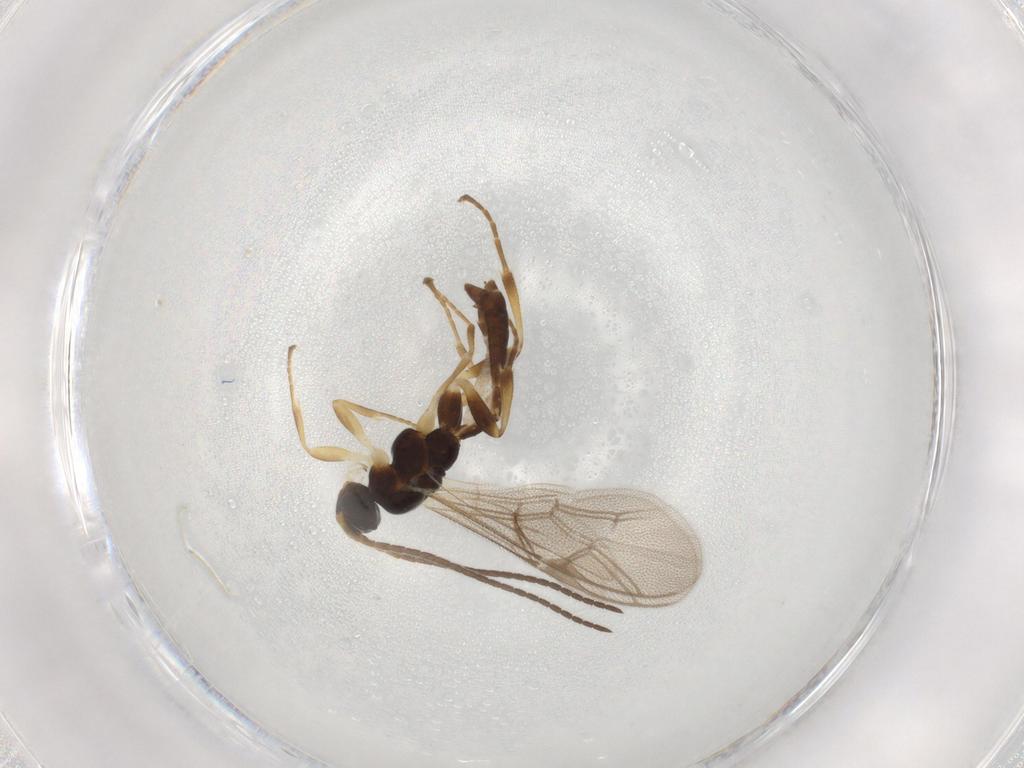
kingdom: Animalia
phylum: Arthropoda
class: Insecta
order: Hymenoptera
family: Ichneumonidae
